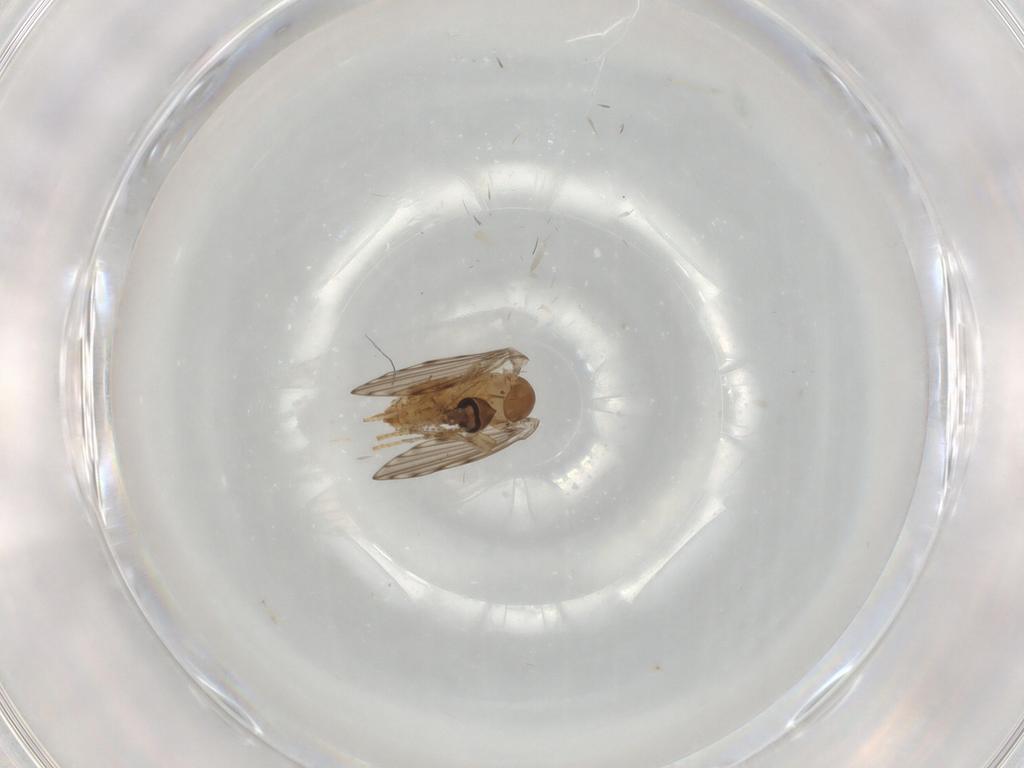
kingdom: Animalia
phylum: Arthropoda
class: Insecta
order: Diptera
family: Psychodidae
